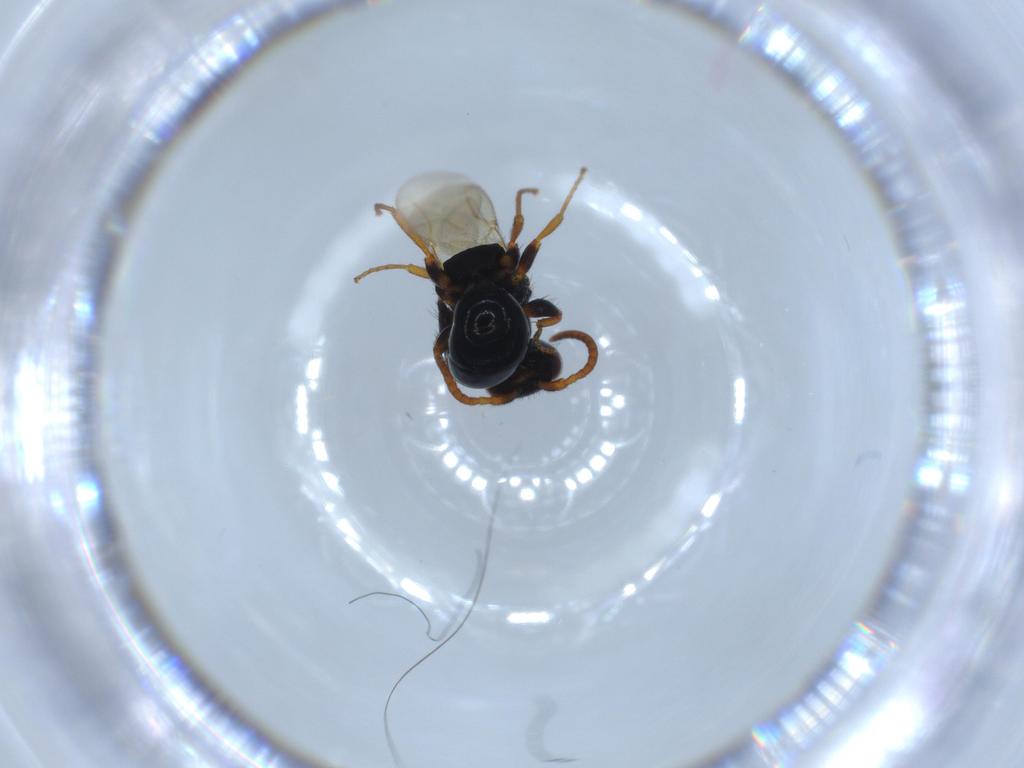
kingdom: Animalia
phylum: Arthropoda
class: Insecta
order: Hymenoptera
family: Bethylidae
